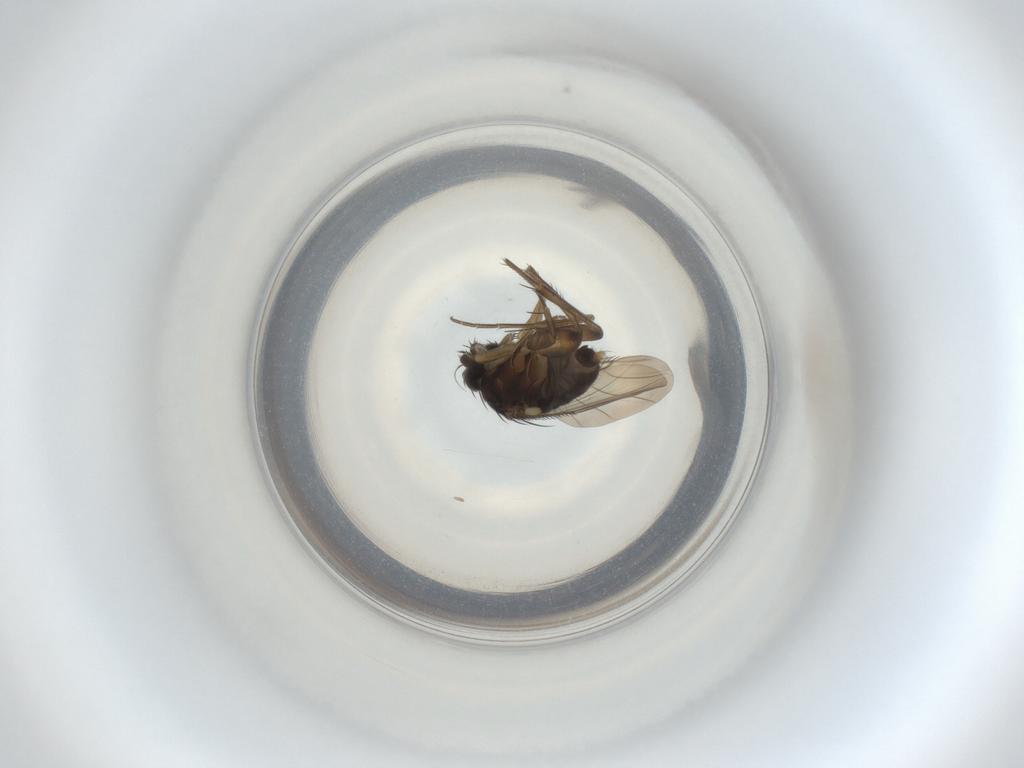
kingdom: Animalia
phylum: Arthropoda
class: Insecta
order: Diptera
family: Phoridae
